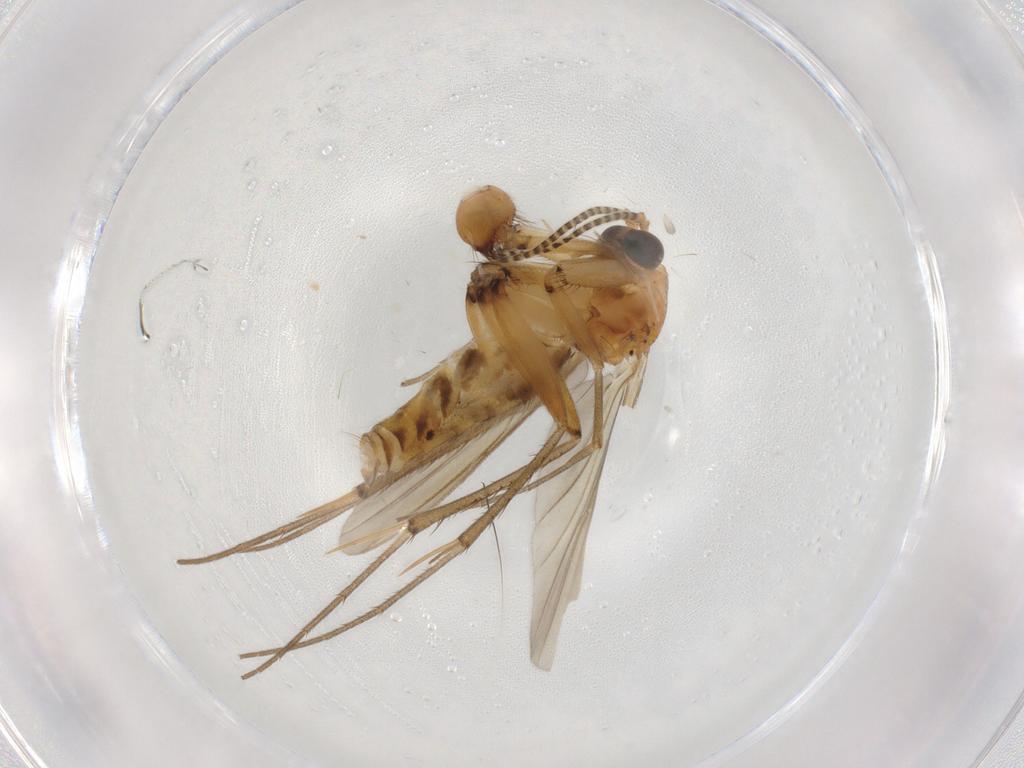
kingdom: Animalia
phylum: Arthropoda
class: Insecta
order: Diptera
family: Mycetophilidae
